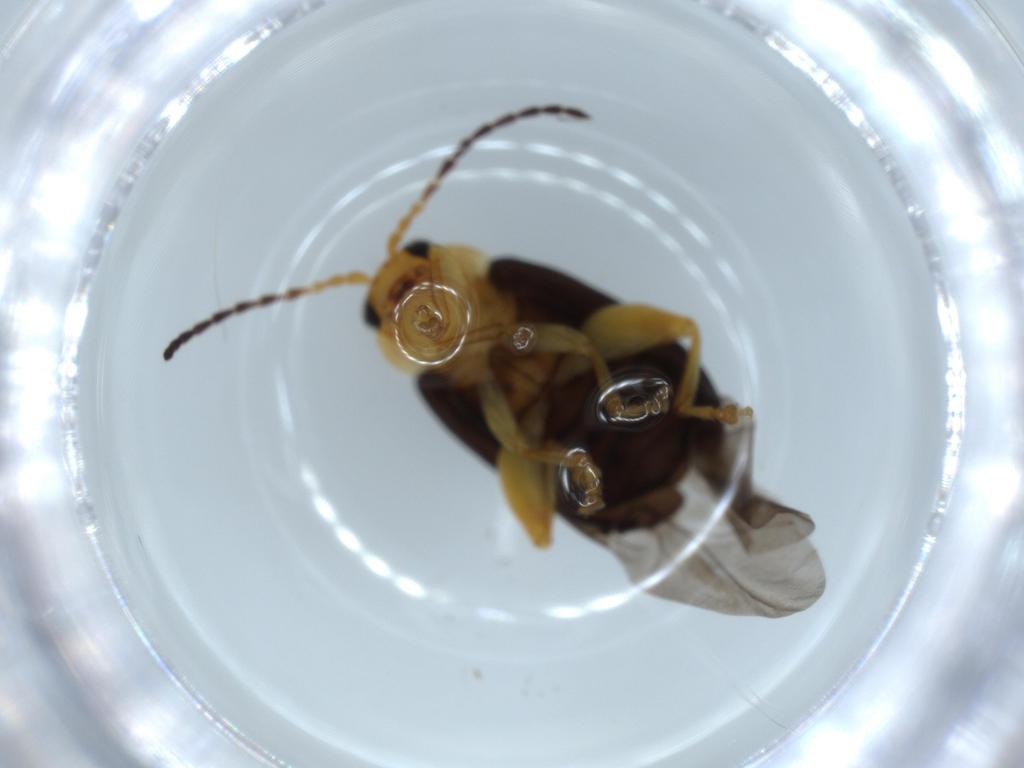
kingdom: Animalia
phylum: Arthropoda
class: Insecta
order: Coleoptera
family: Chrysomelidae
